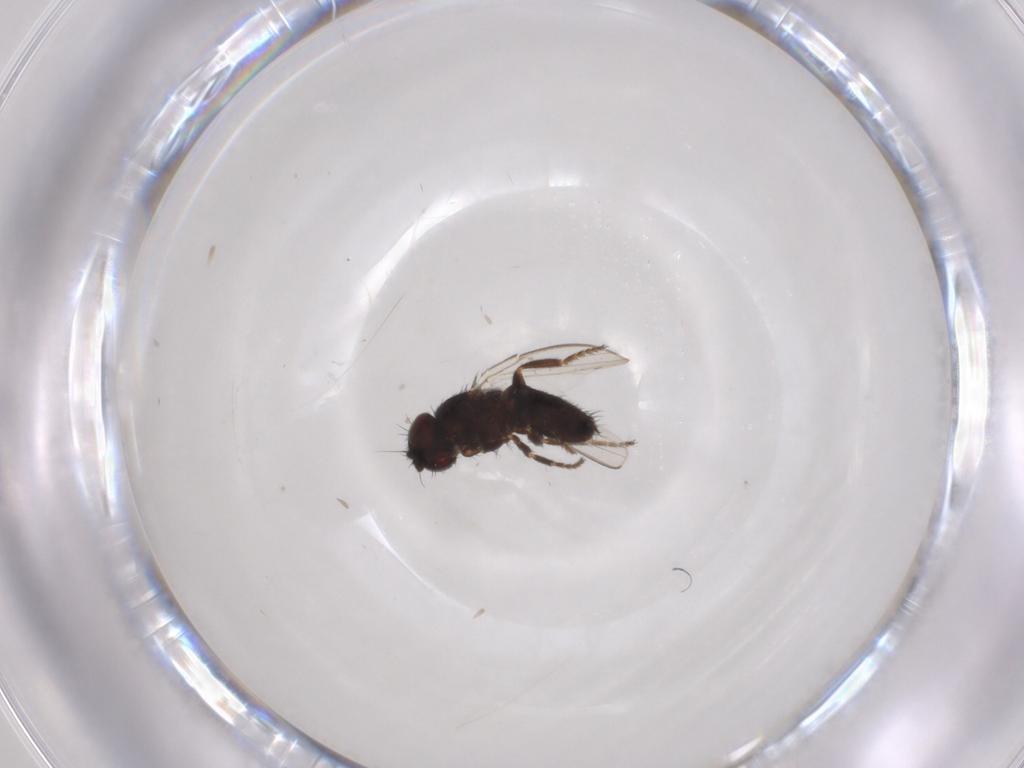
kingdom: Animalia
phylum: Arthropoda
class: Insecta
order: Diptera
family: Milichiidae
